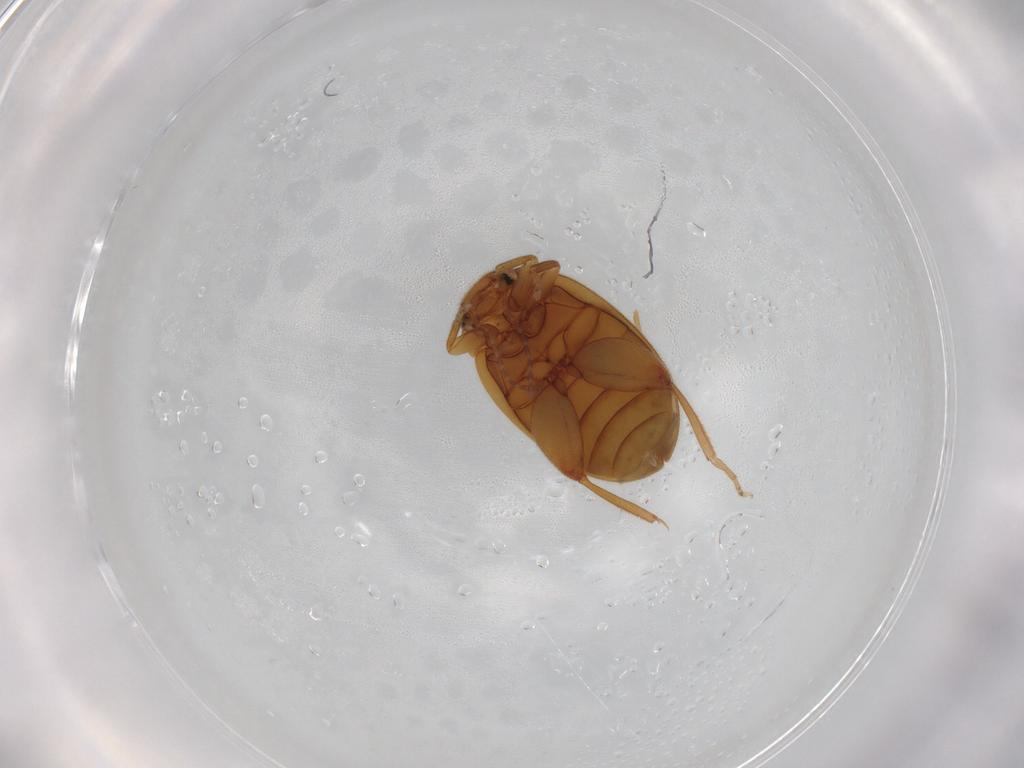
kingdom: Animalia
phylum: Arthropoda
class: Insecta
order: Coleoptera
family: Scirtidae
